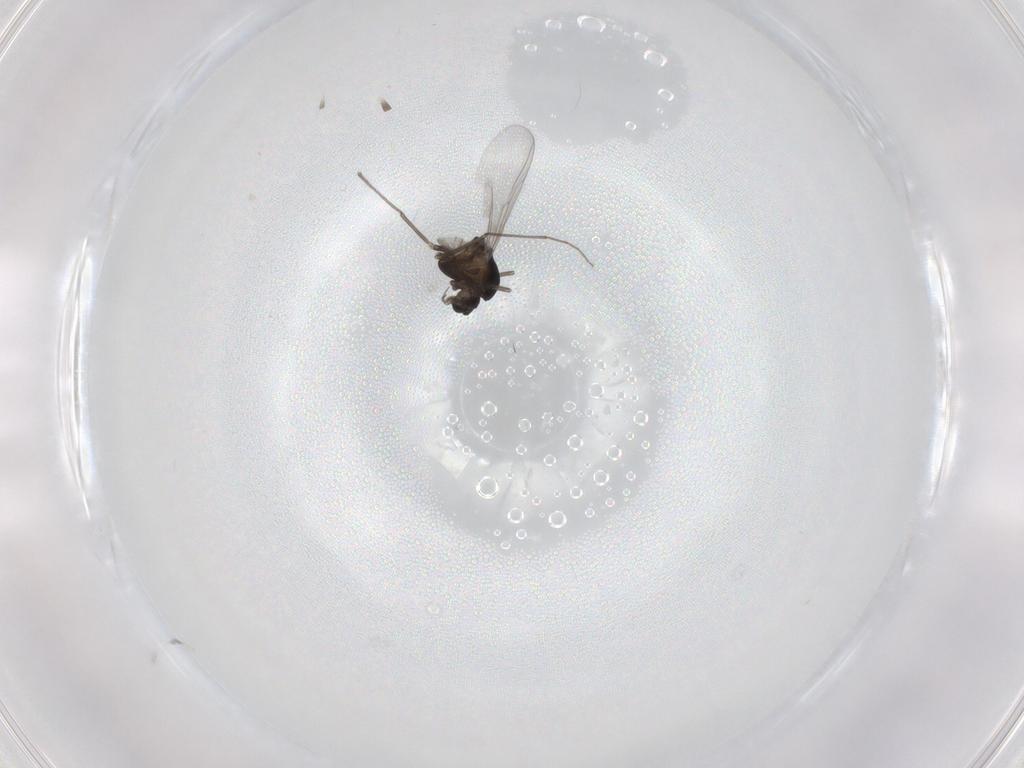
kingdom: Animalia
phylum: Arthropoda
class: Insecta
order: Diptera
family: Chironomidae
